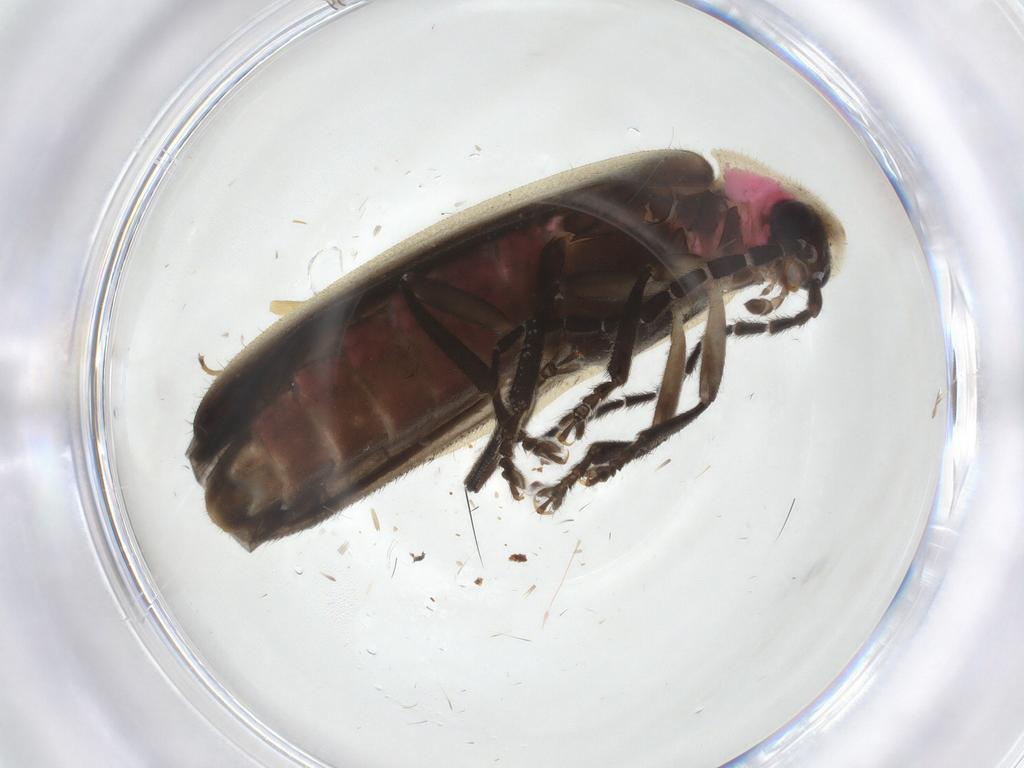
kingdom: Animalia
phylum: Arthropoda
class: Insecta
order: Coleoptera
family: Lampyridae
